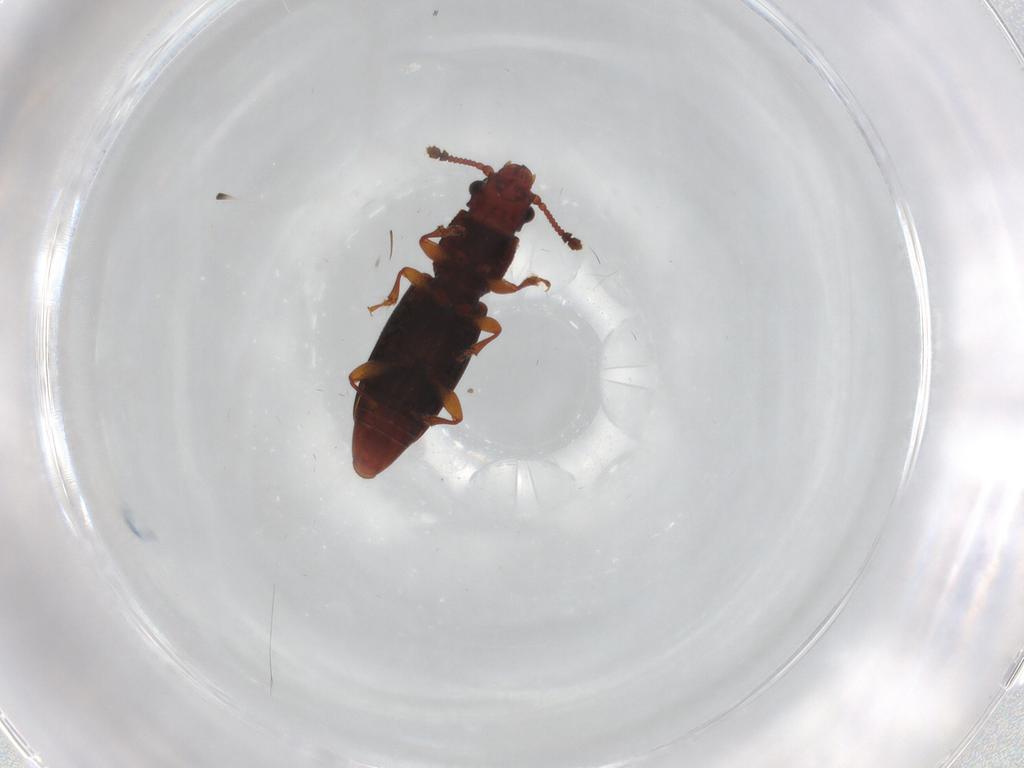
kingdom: Animalia
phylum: Arthropoda
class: Insecta
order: Coleoptera
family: Monotomidae
